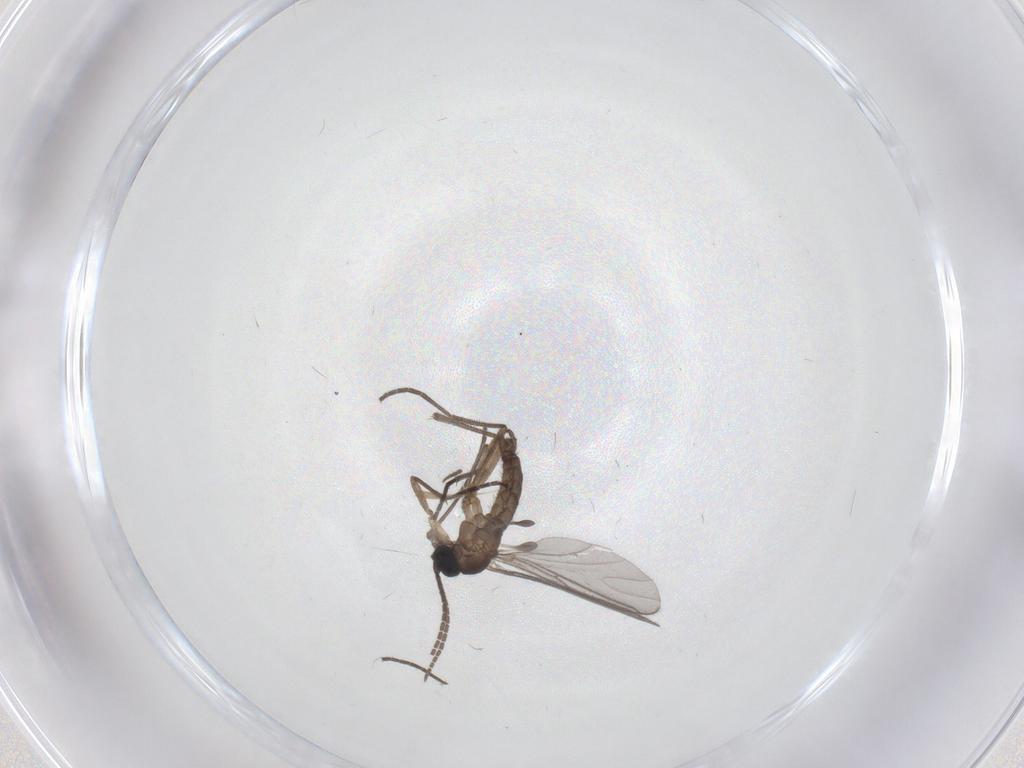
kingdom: Animalia
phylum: Arthropoda
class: Insecta
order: Diptera
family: Sciaridae
